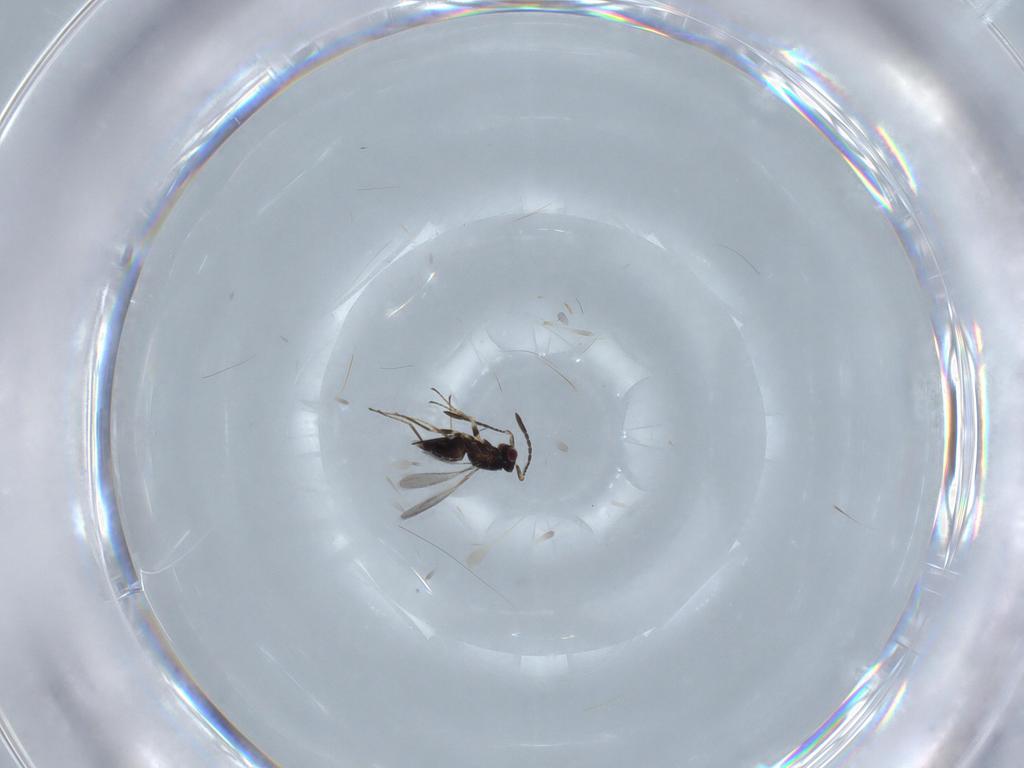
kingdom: Animalia
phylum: Arthropoda
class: Insecta
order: Hymenoptera
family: Mymaridae
